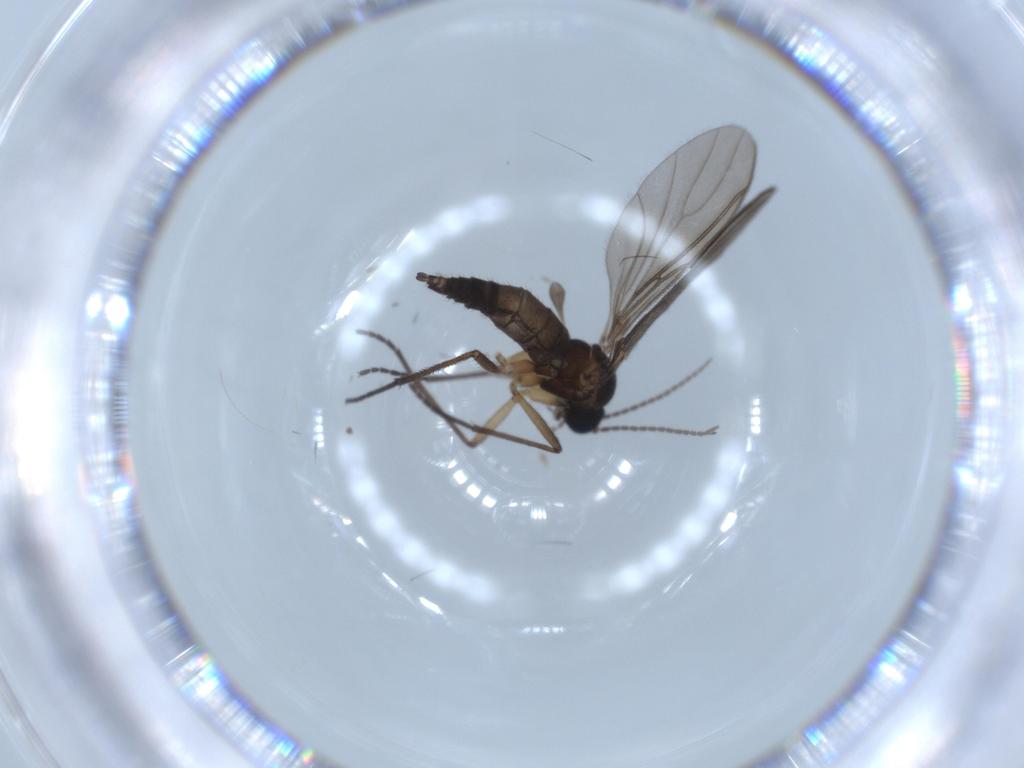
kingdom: Animalia
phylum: Arthropoda
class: Insecta
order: Diptera
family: Sciaridae
